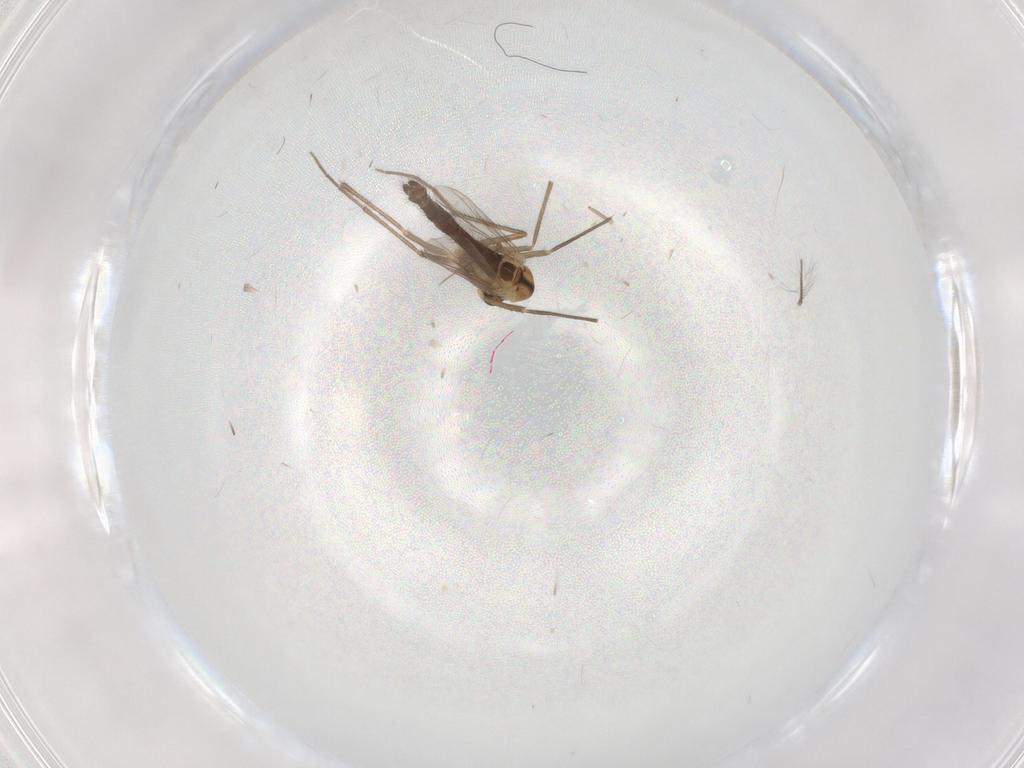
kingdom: Animalia
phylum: Arthropoda
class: Insecta
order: Diptera
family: Chironomidae
